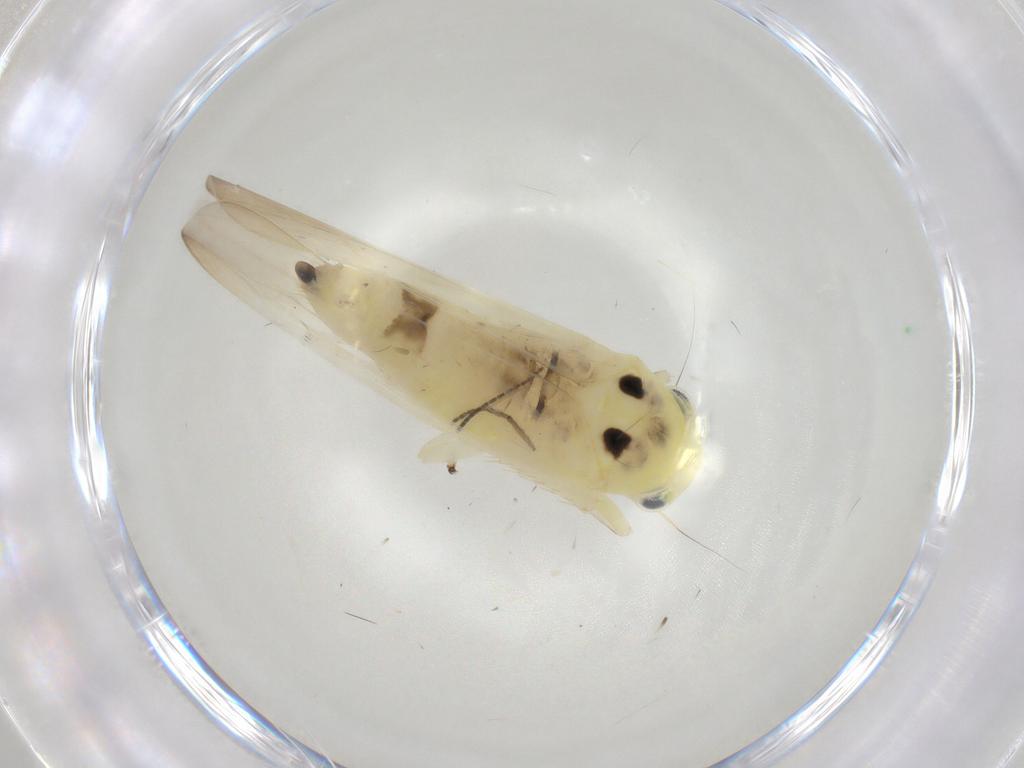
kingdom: Animalia
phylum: Arthropoda
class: Insecta
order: Hemiptera
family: Cicadellidae
